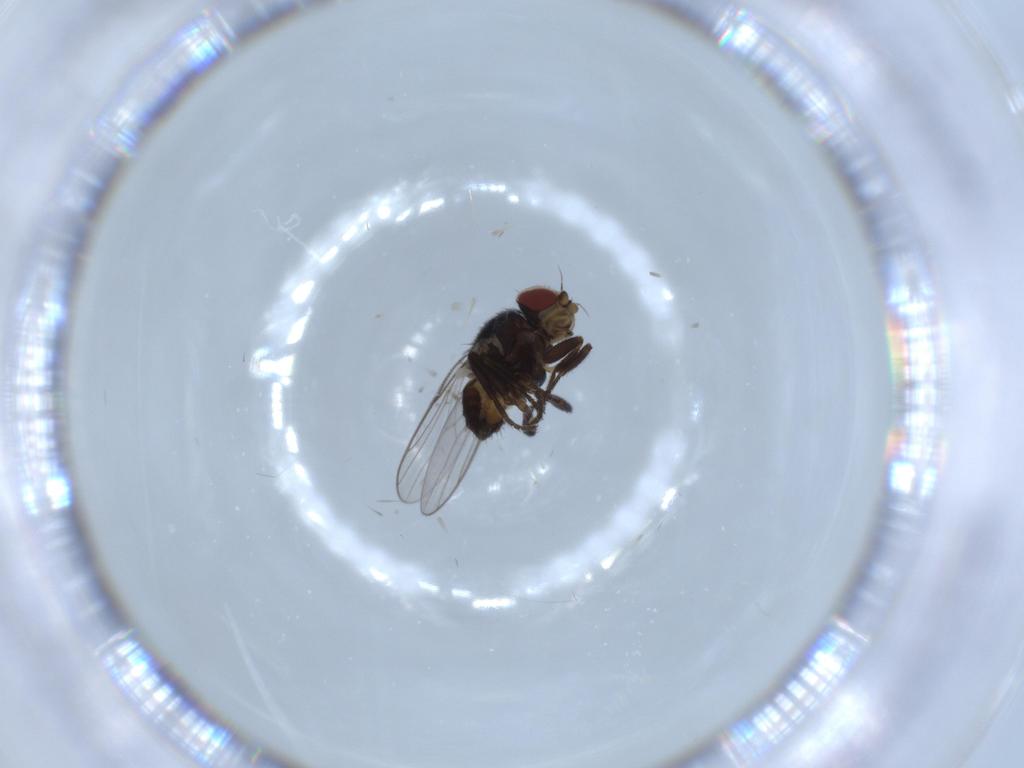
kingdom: Animalia
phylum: Arthropoda
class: Insecta
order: Diptera
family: Chloropidae
